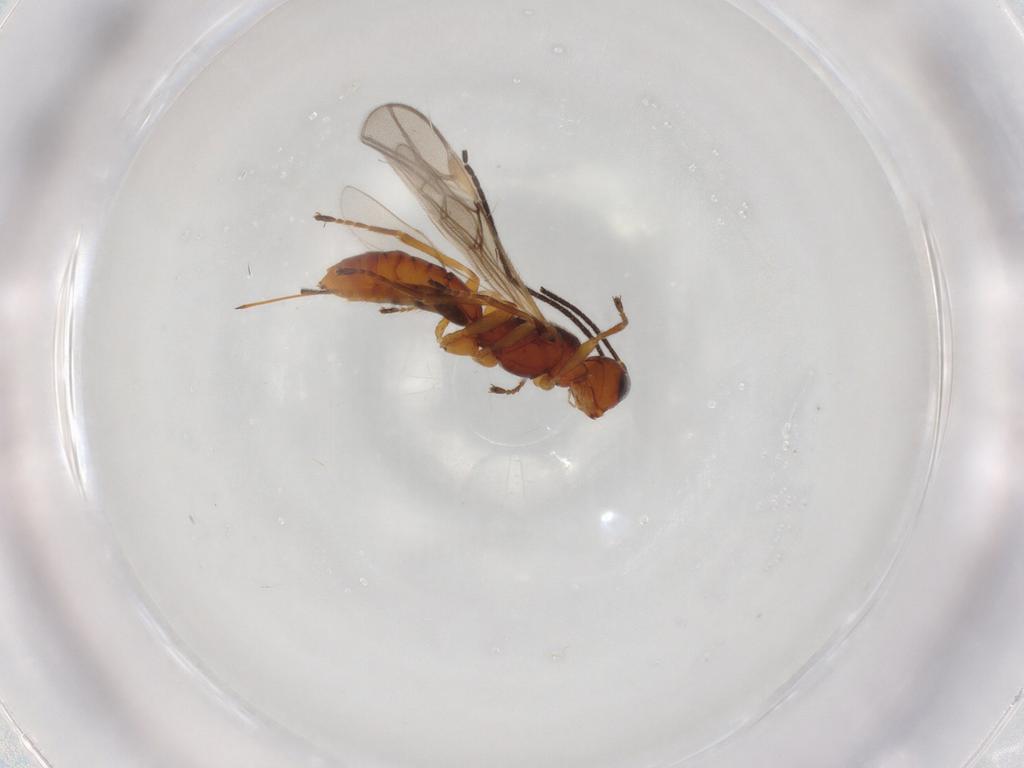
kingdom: Animalia
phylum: Arthropoda
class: Insecta
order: Hymenoptera
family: Braconidae
